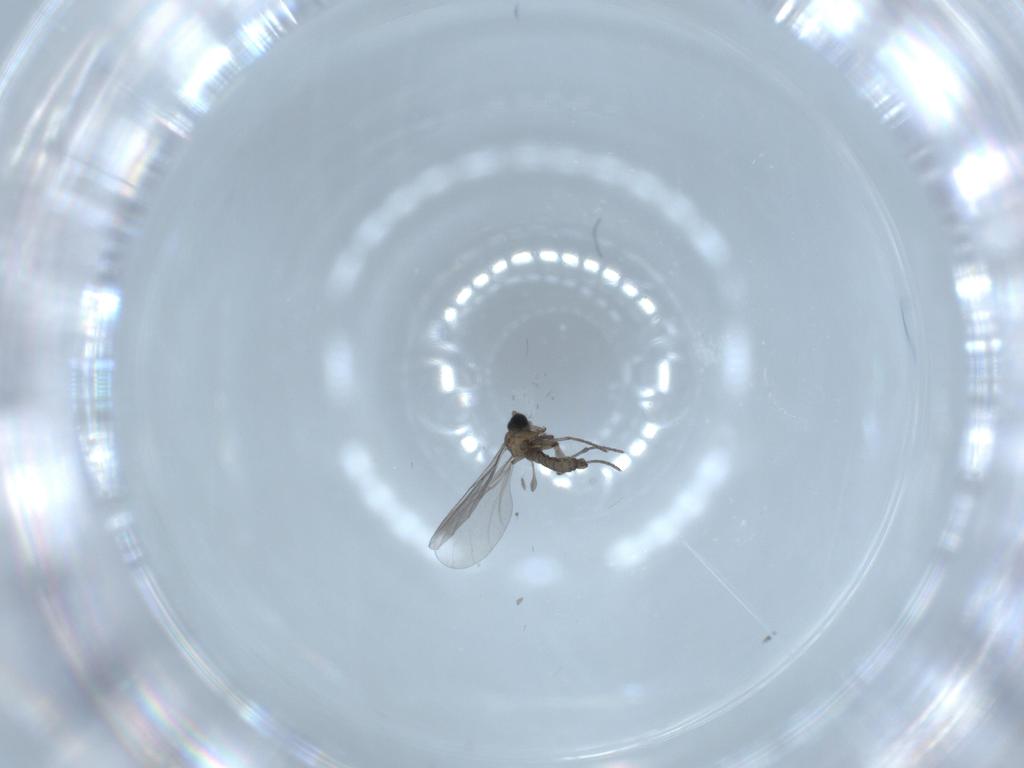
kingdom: Animalia
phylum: Arthropoda
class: Insecta
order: Diptera
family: Sciaridae
